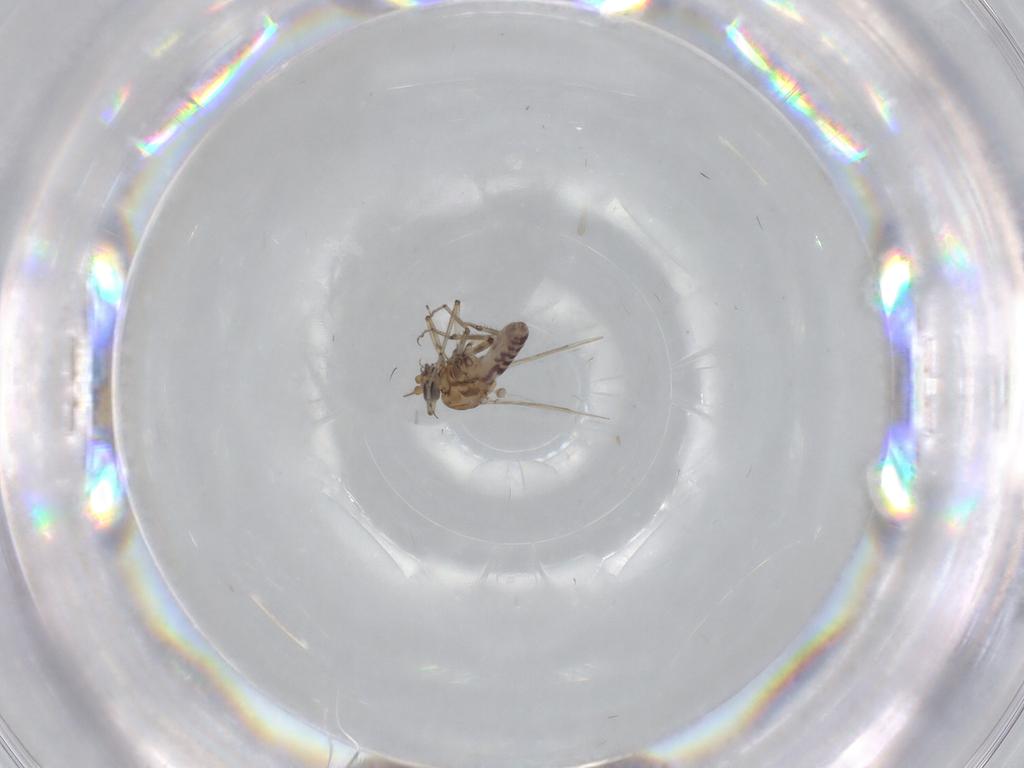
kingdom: Animalia
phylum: Arthropoda
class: Insecta
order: Diptera
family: Ceratopogonidae
